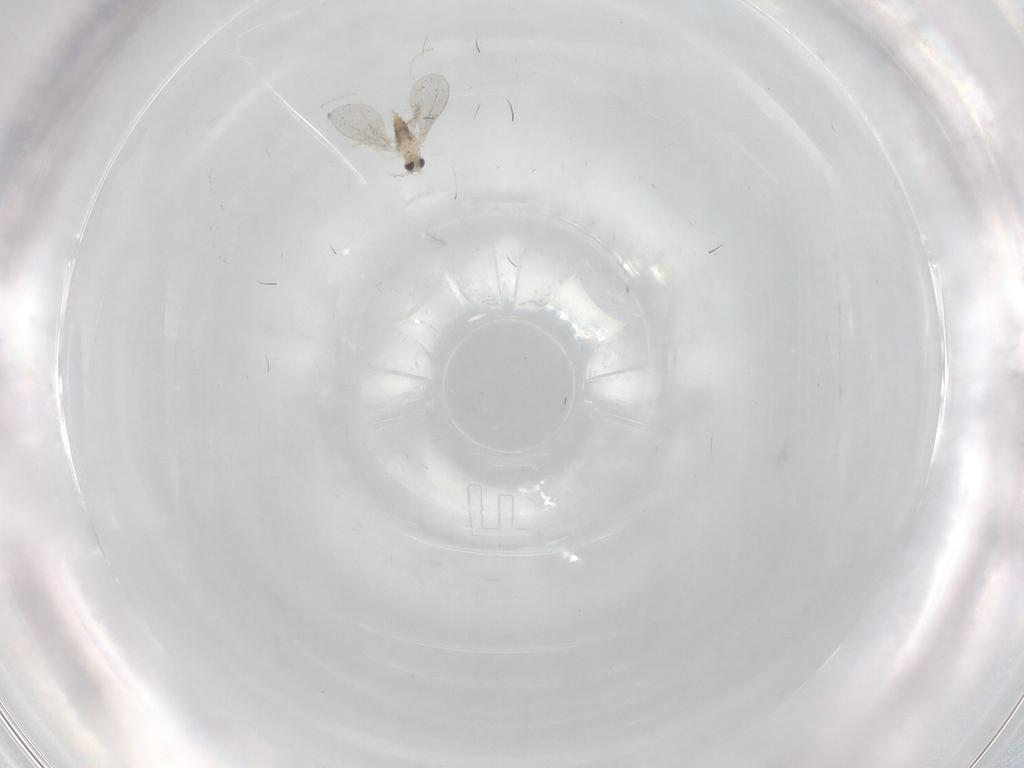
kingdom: Animalia
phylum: Arthropoda
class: Insecta
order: Diptera
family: Cecidomyiidae
